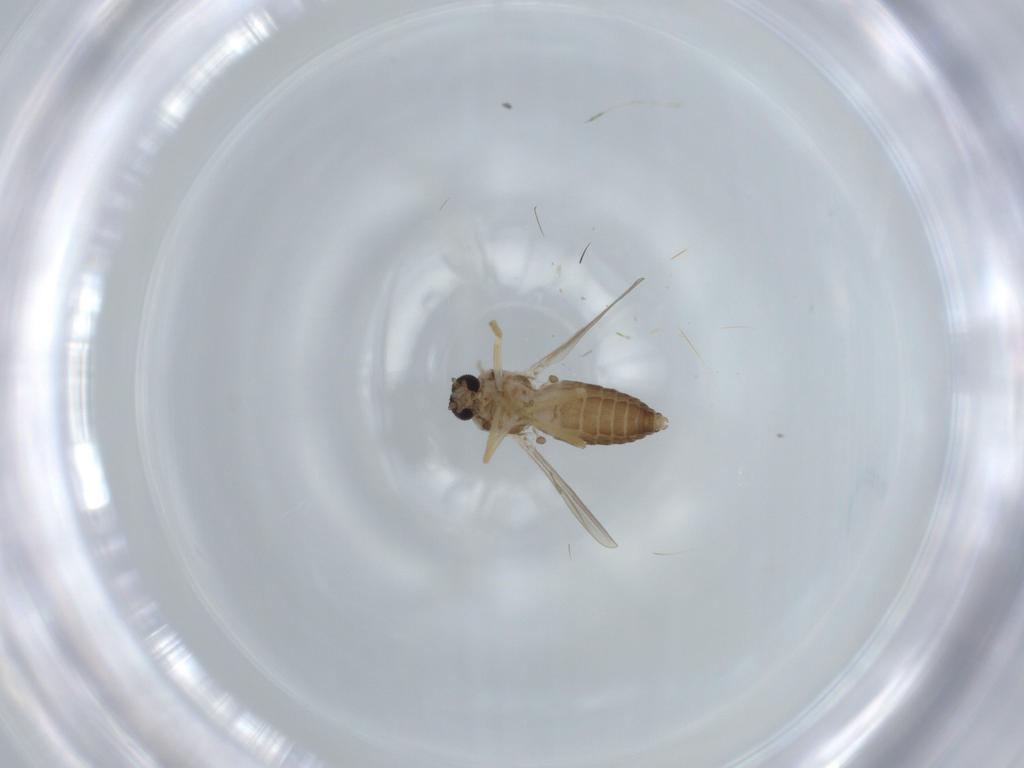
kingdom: Animalia
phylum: Arthropoda
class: Insecta
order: Diptera
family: Ceratopogonidae
